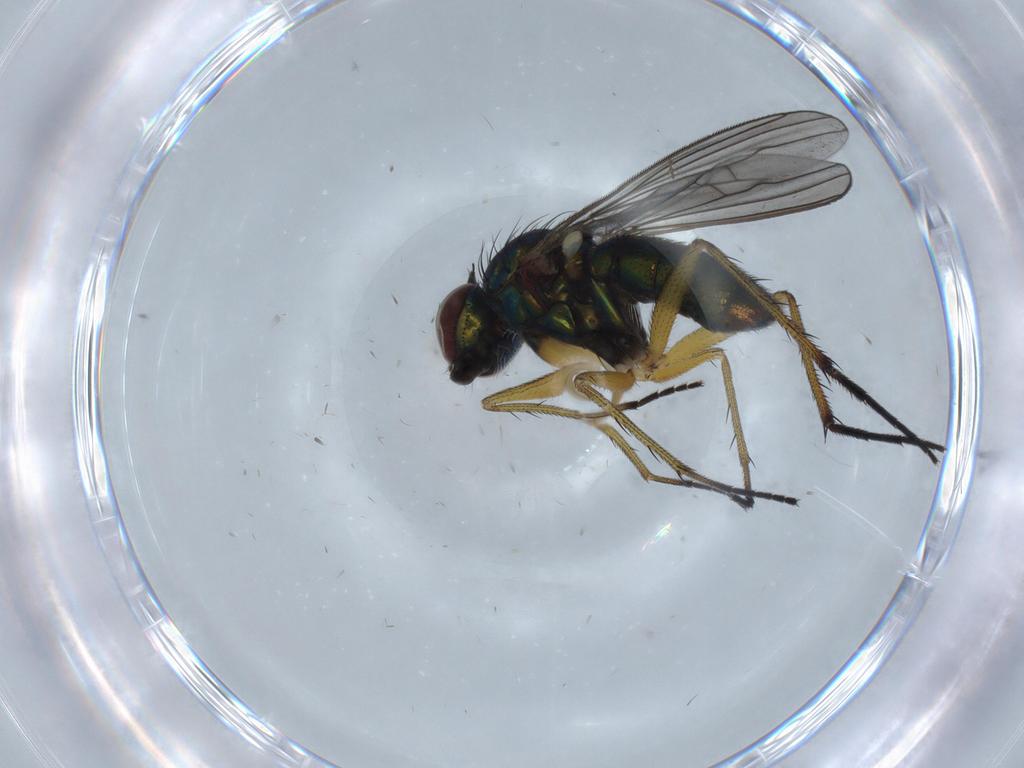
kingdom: Animalia
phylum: Arthropoda
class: Insecta
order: Diptera
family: Dolichopodidae
